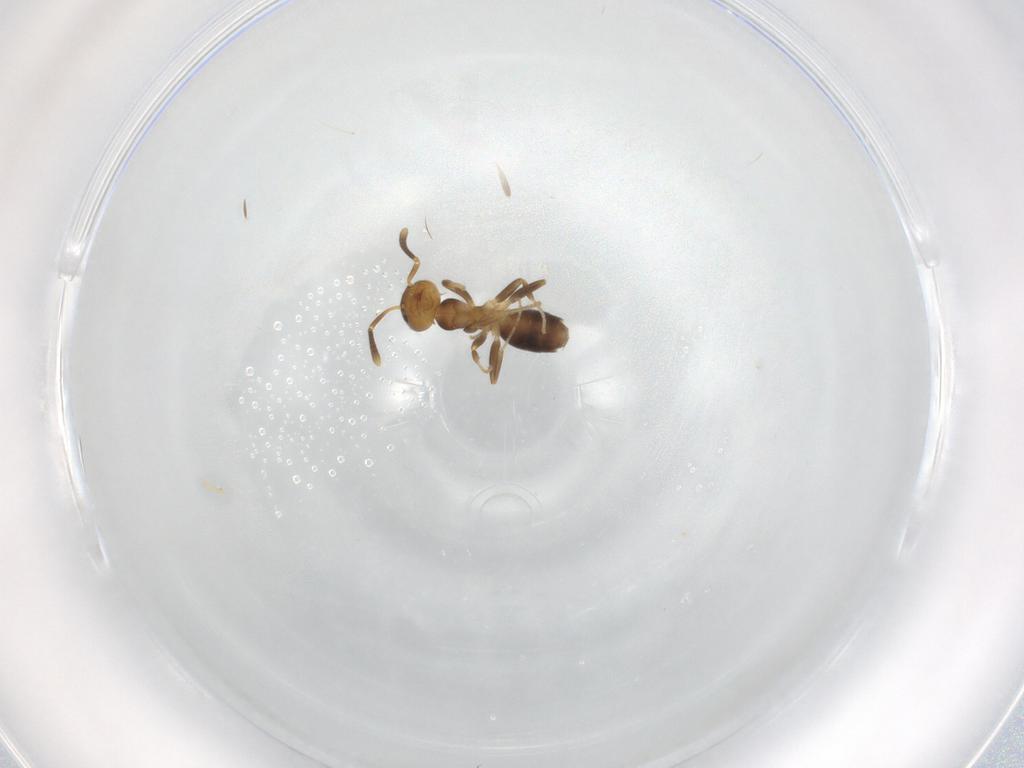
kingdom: Animalia
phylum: Arthropoda
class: Insecta
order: Hymenoptera
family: Formicidae
